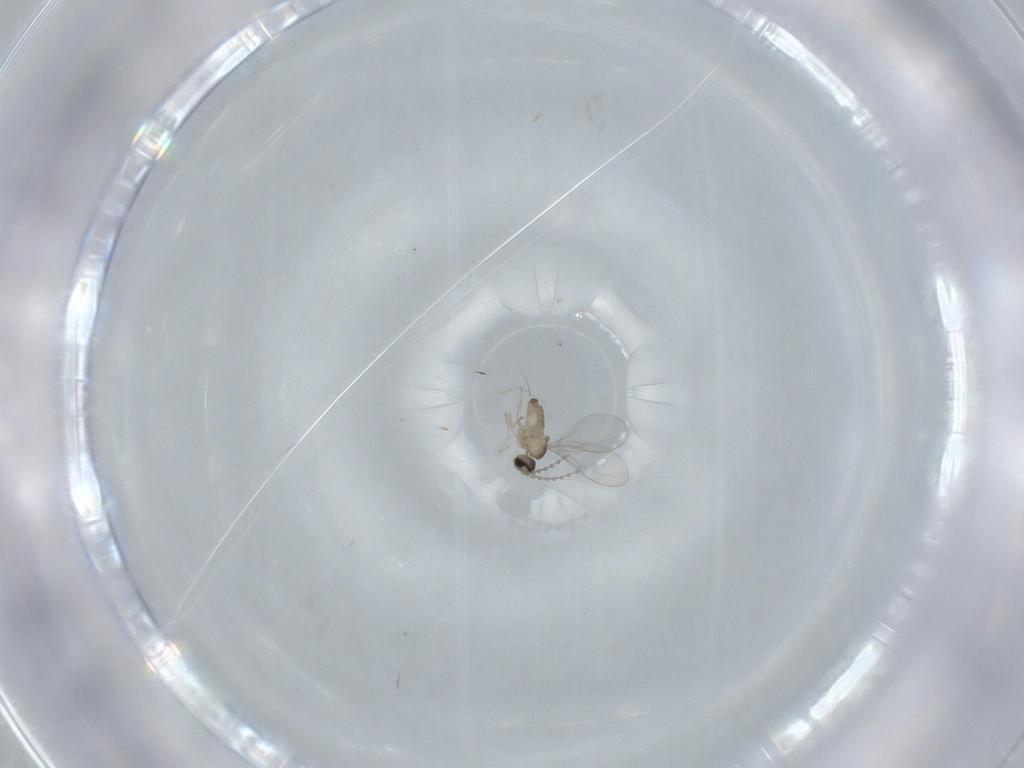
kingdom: Animalia
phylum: Arthropoda
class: Insecta
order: Diptera
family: Cecidomyiidae
